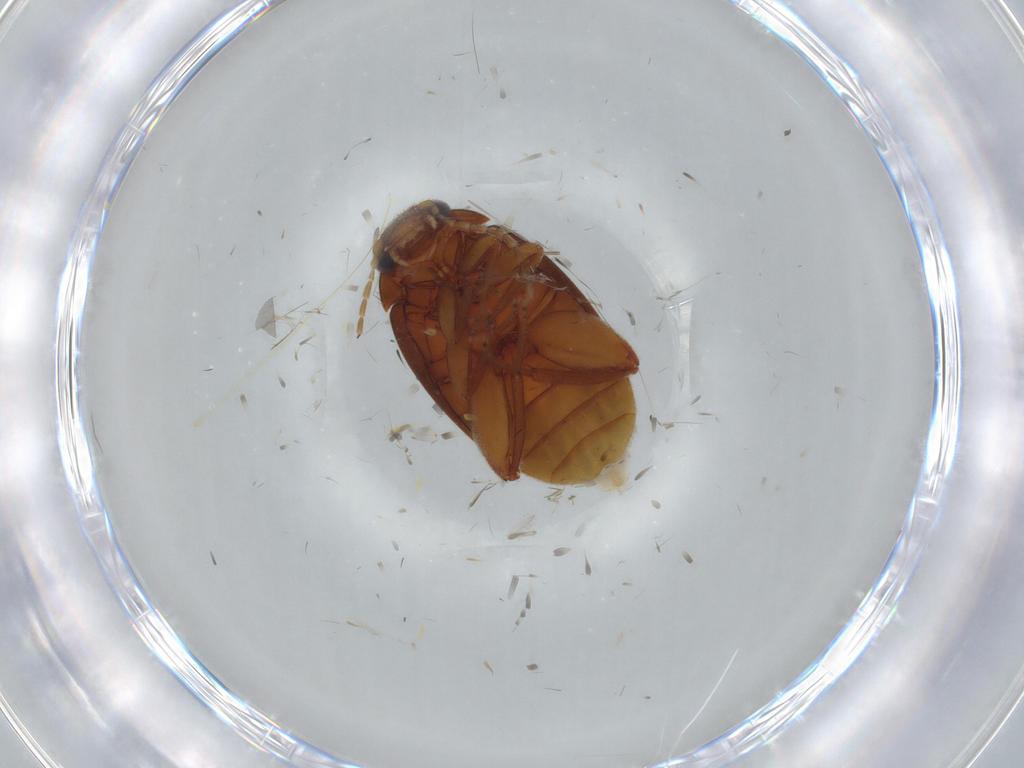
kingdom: Animalia
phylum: Arthropoda
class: Insecta
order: Coleoptera
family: Scirtidae
